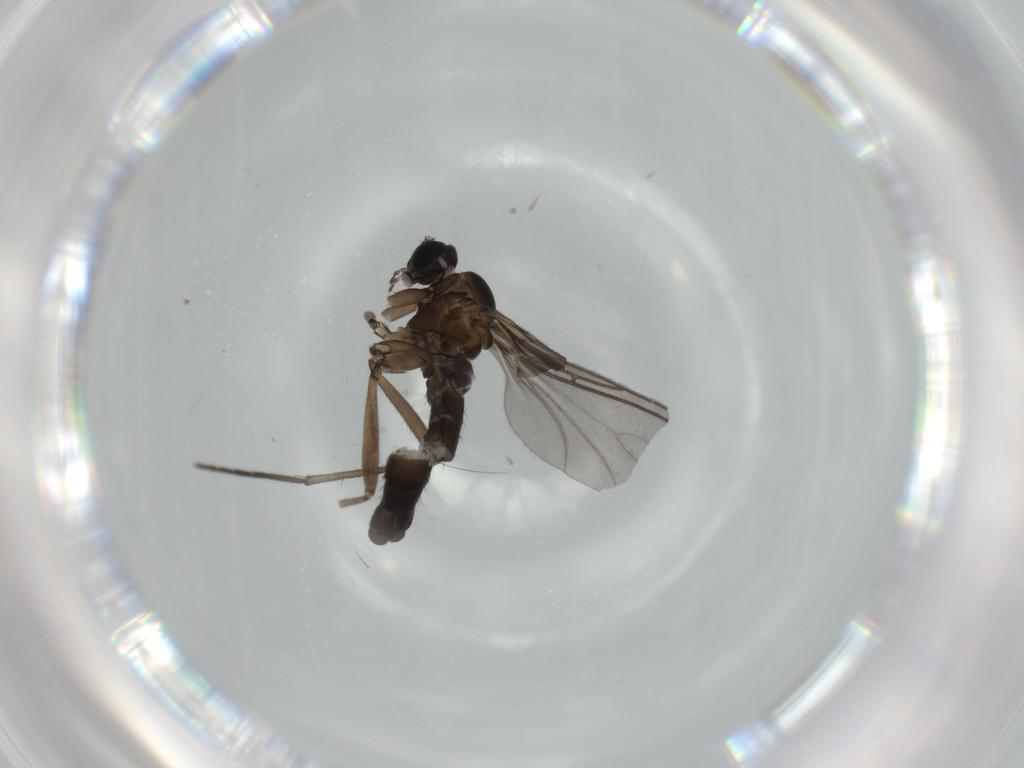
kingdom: Animalia
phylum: Arthropoda
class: Insecta
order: Diptera
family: Sciaridae
